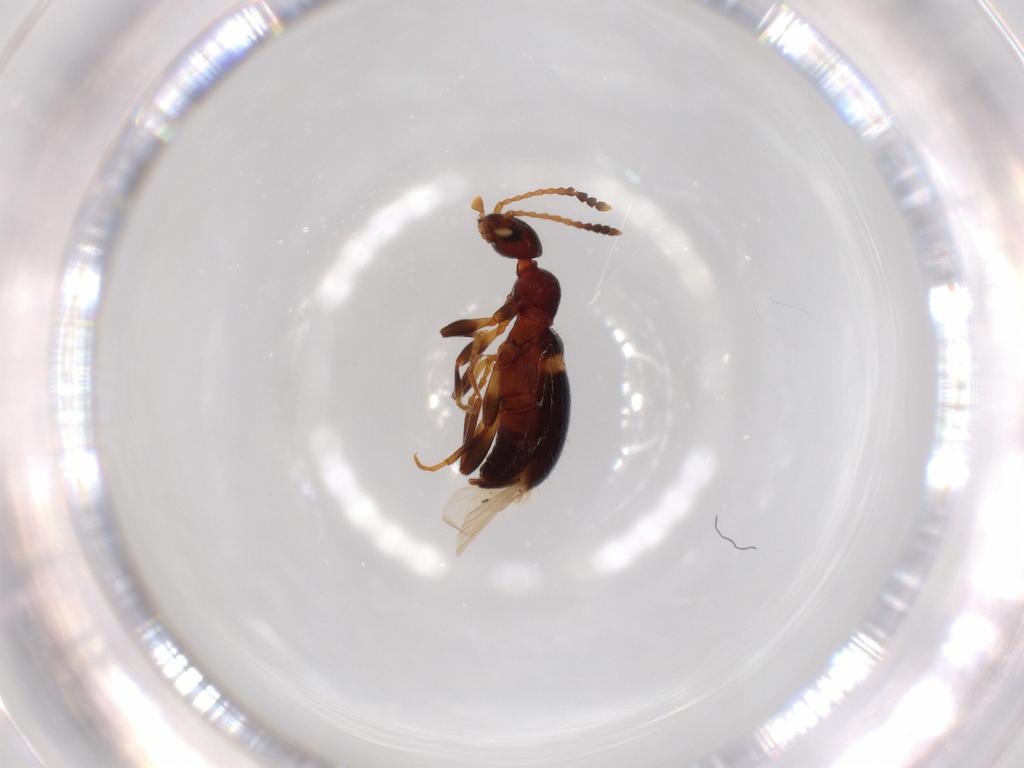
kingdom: Animalia
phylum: Arthropoda
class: Insecta
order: Coleoptera
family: Anthicidae
